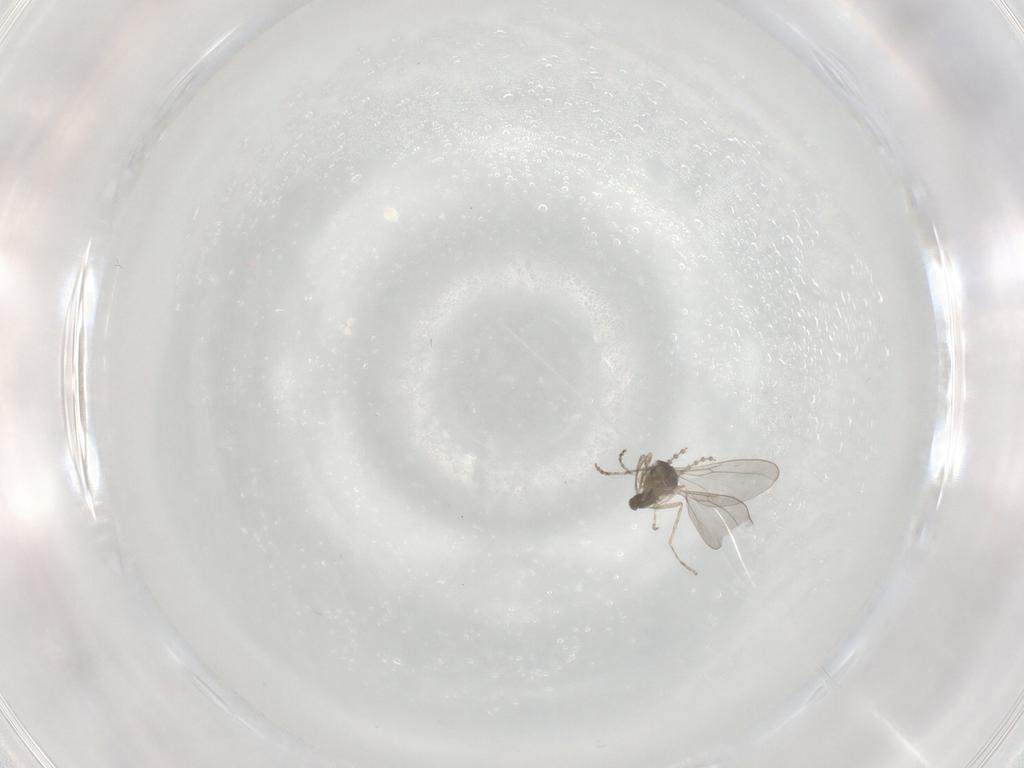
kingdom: Animalia
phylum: Arthropoda
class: Insecta
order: Diptera
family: Cecidomyiidae
